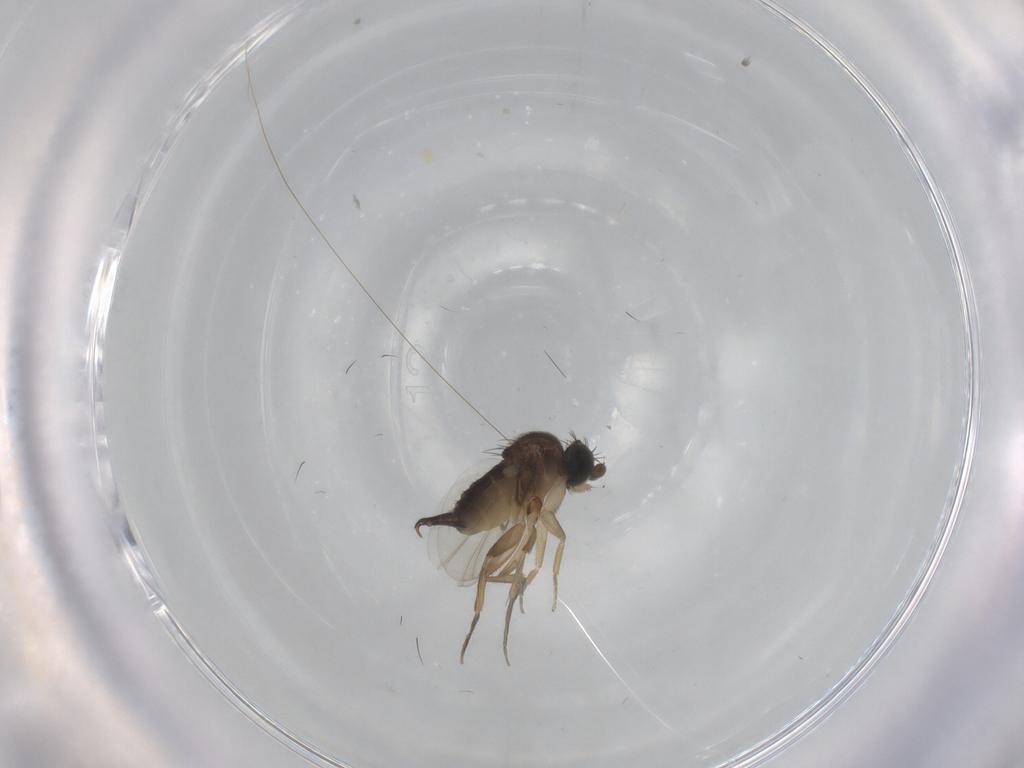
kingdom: Animalia
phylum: Arthropoda
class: Insecta
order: Diptera
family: Phoridae
